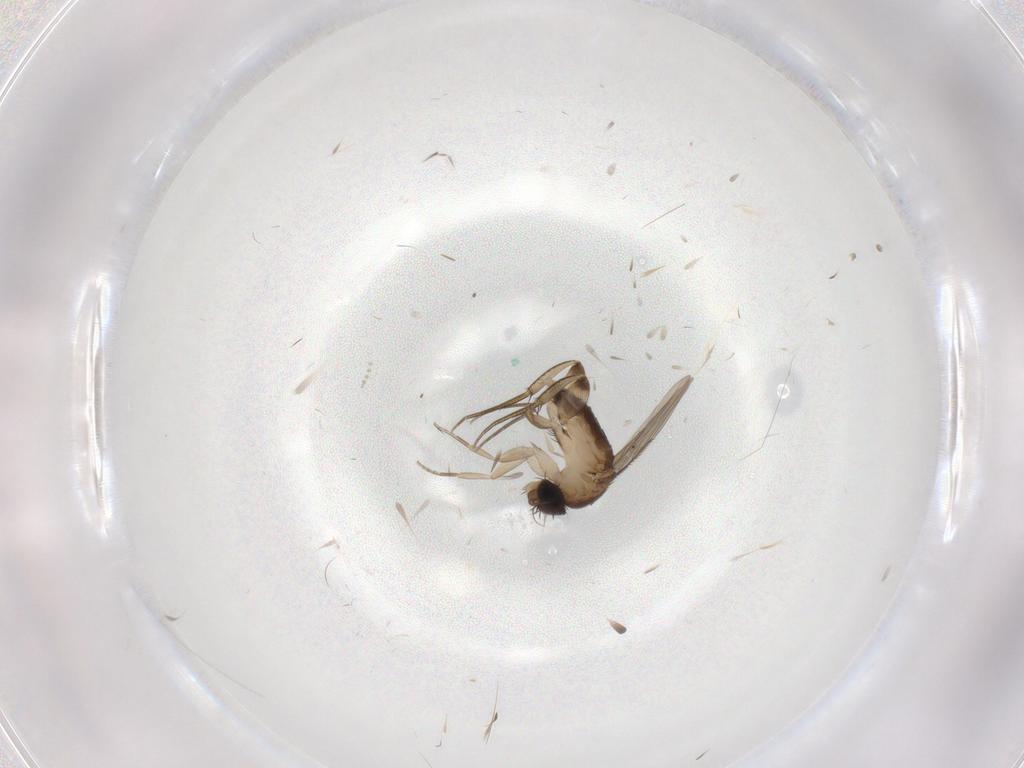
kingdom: Animalia
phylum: Arthropoda
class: Insecta
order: Diptera
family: Phoridae
